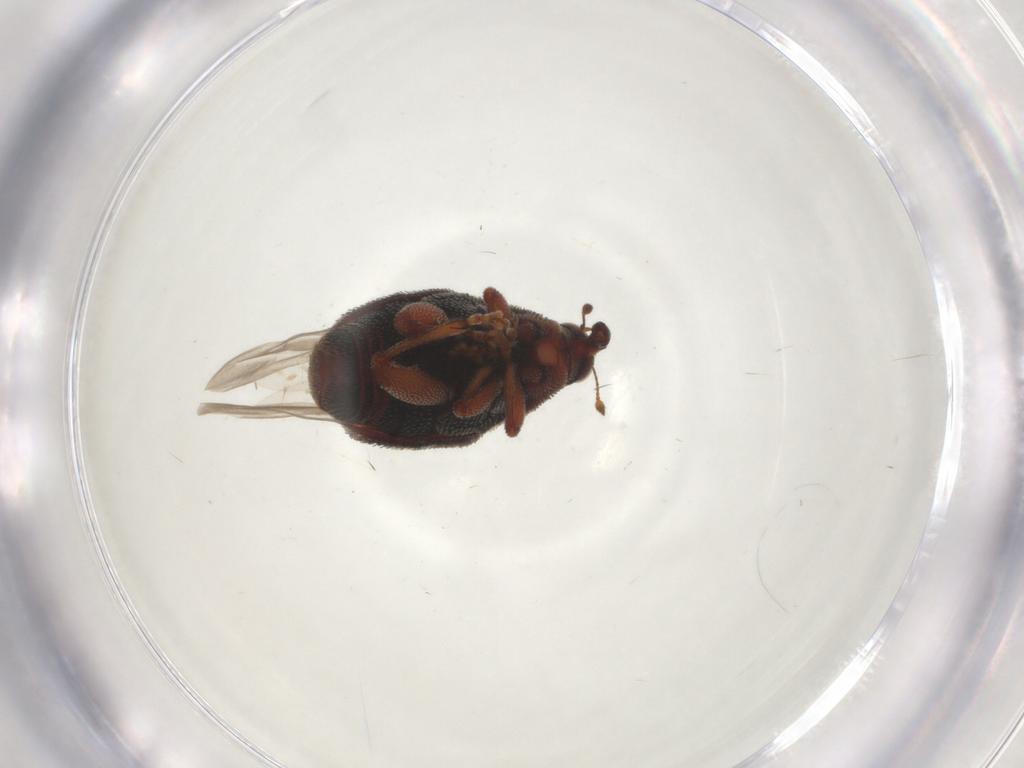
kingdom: Animalia
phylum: Arthropoda
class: Insecta
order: Coleoptera
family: Curculionidae
